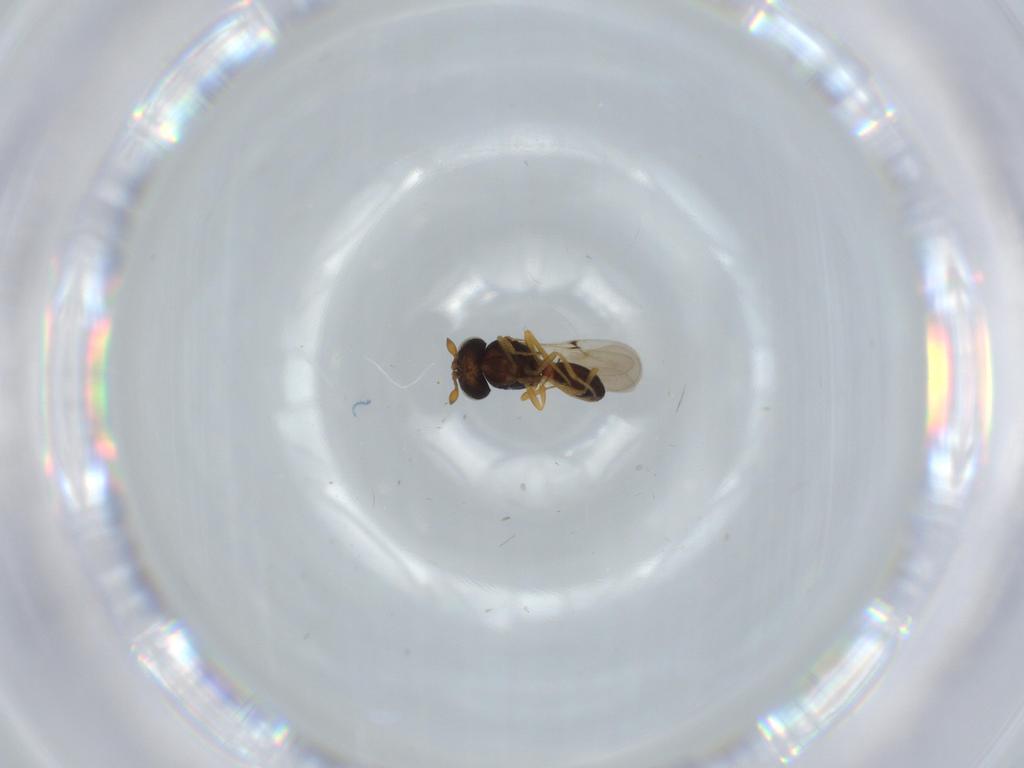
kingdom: Animalia
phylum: Arthropoda
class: Insecta
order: Hymenoptera
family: Scelionidae
